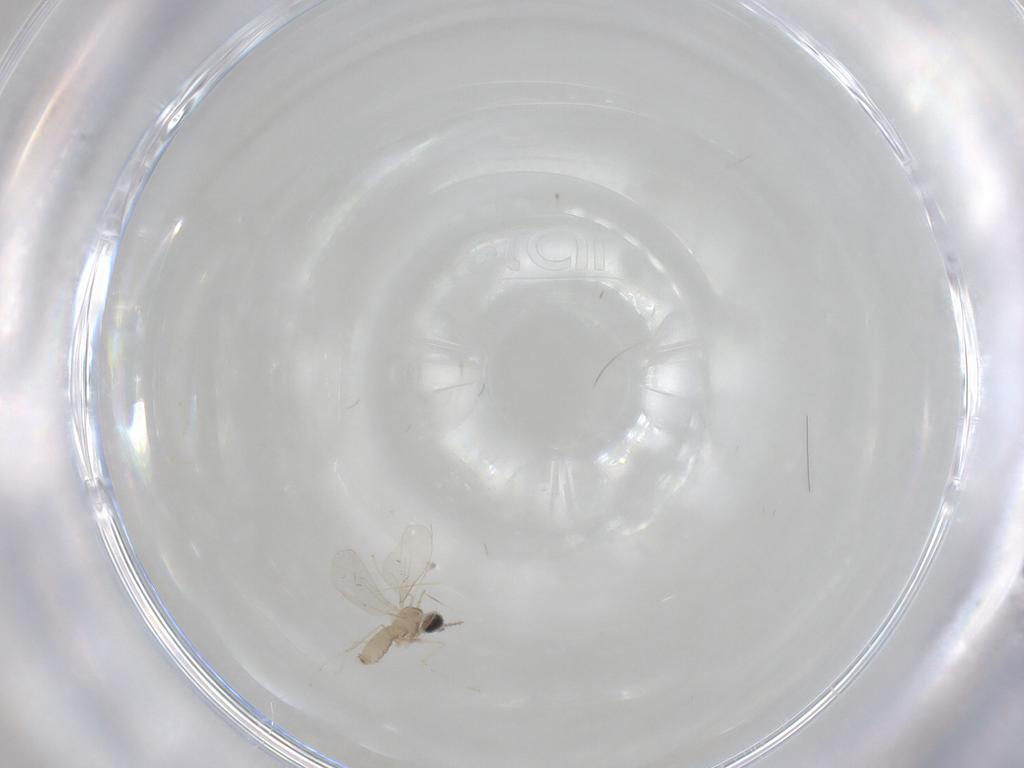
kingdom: Animalia
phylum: Arthropoda
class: Insecta
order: Diptera
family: Cecidomyiidae
